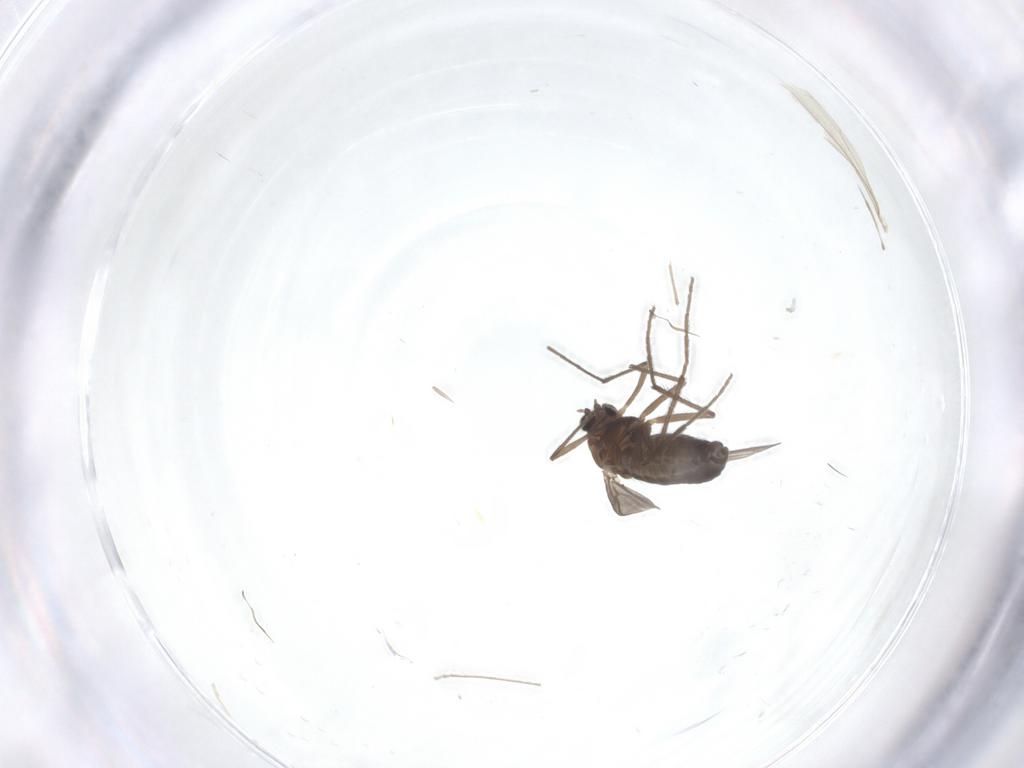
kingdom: Animalia
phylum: Arthropoda
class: Insecta
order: Diptera
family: Chironomidae
